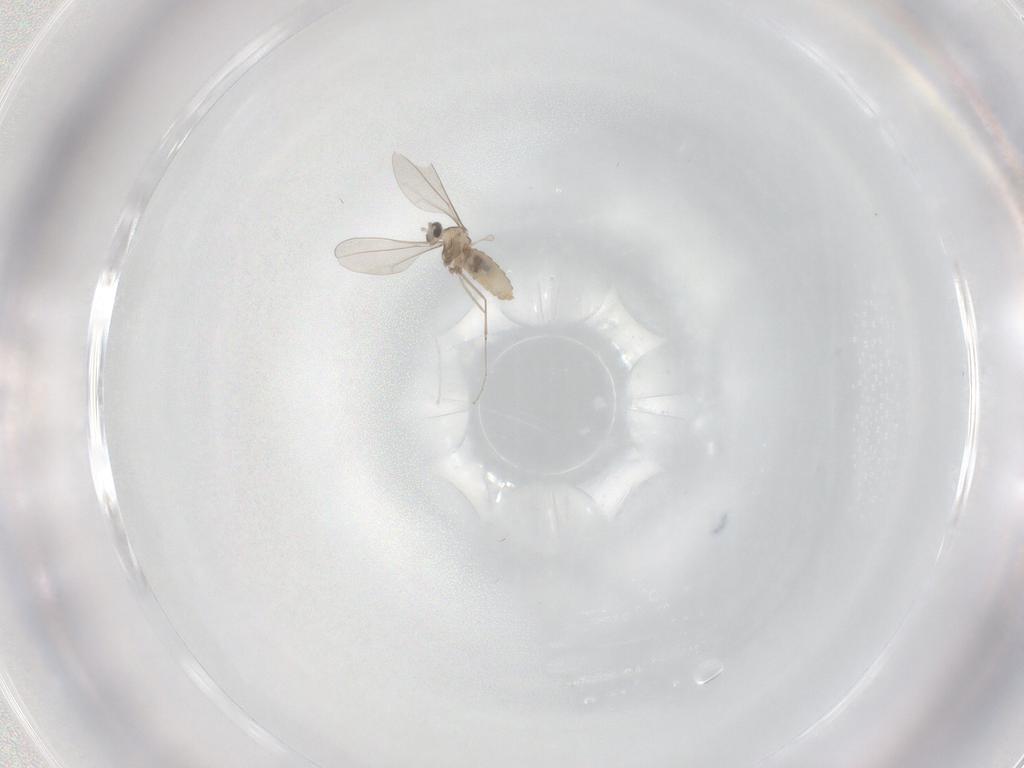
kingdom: Animalia
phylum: Arthropoda
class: Insecta
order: Diptera
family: Cecidomyiidae
